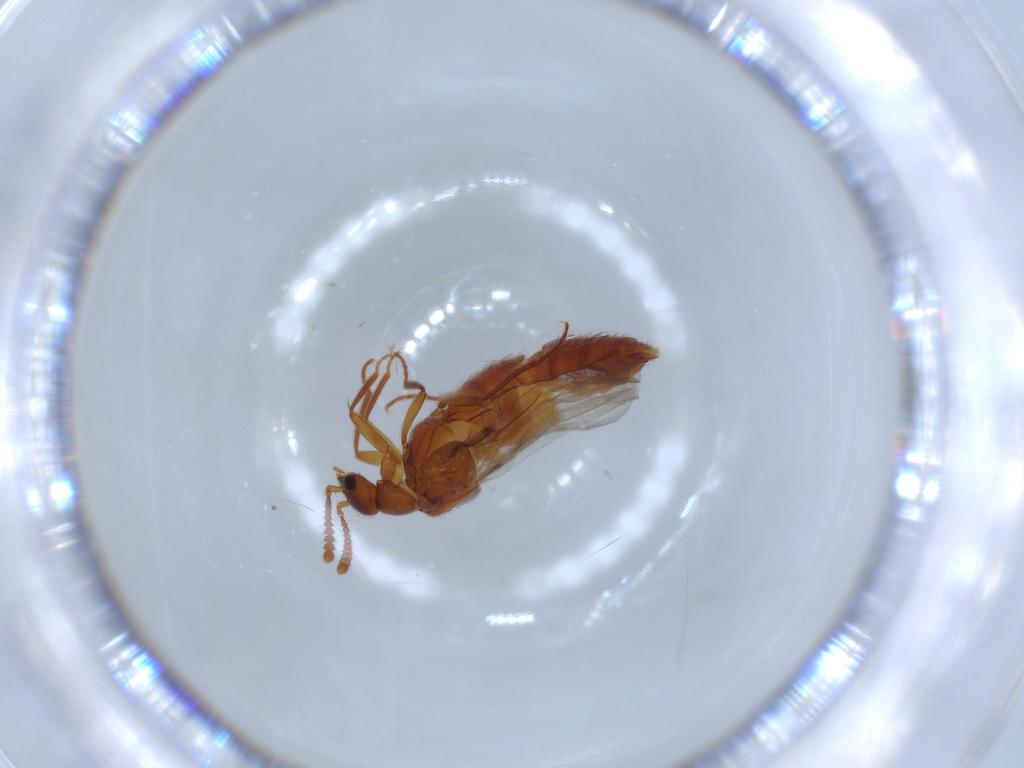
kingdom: Animalia
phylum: Arthropoda
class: Insecta
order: Coleoptera
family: Staphylinidae
